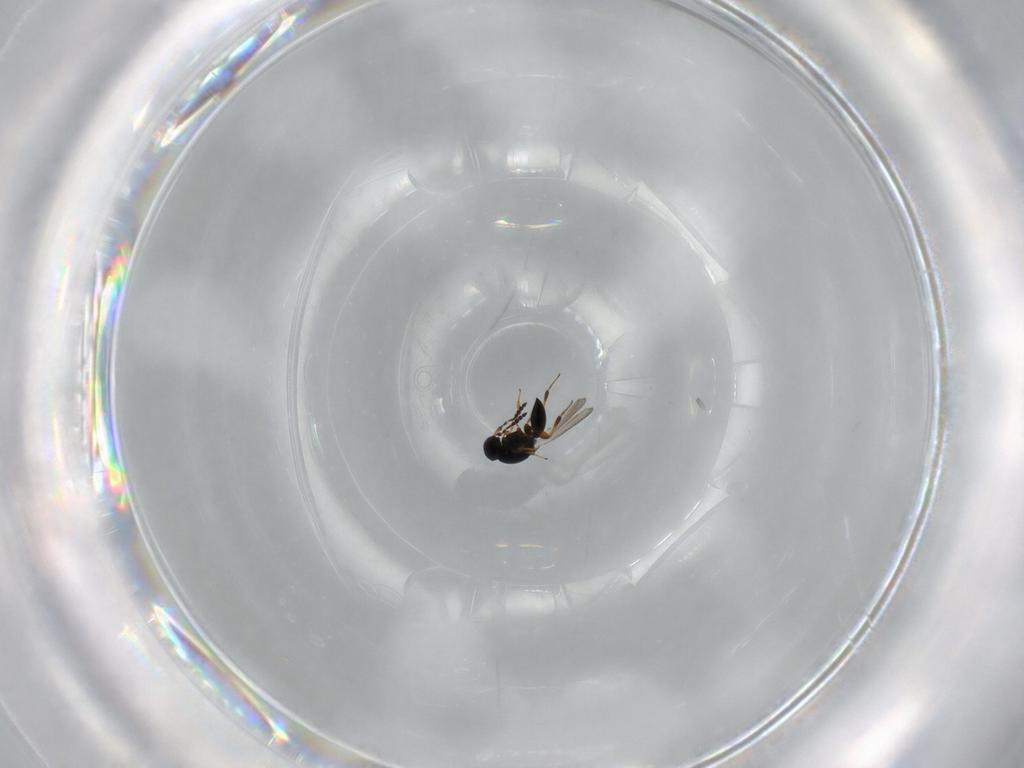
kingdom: Animalia
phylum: Arthropoda
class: Insecta
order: Hymenoptera
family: Platygastridae
